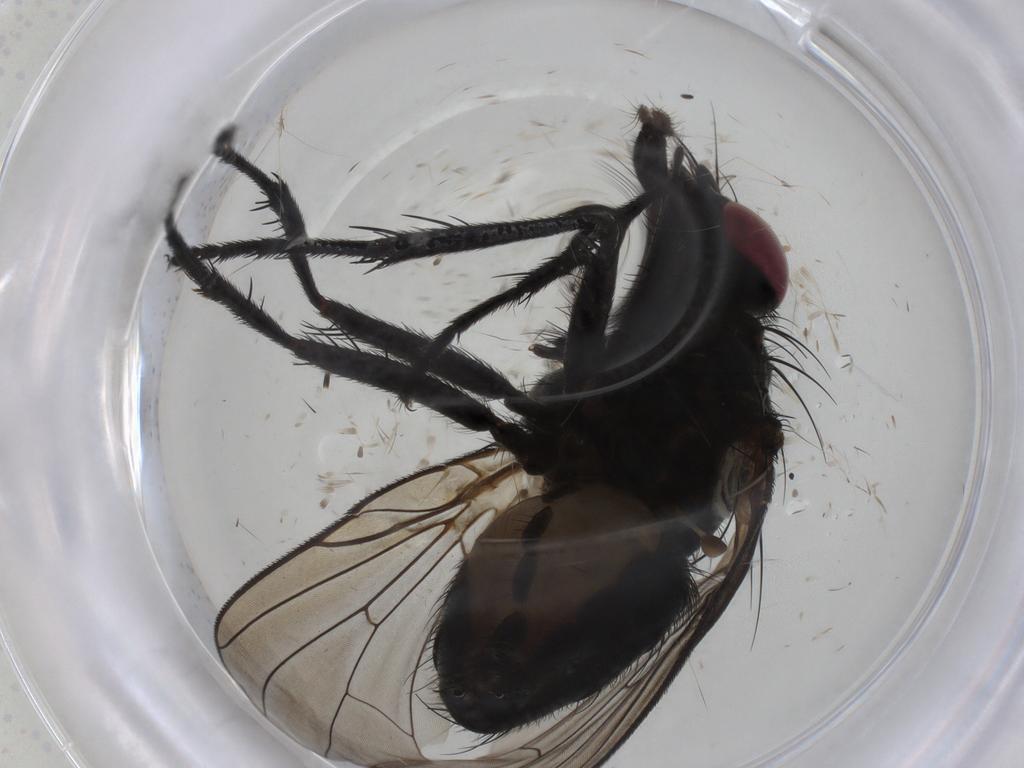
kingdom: Animalia
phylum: Arthropoda
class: Insecta
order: Diptera
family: Fannia
